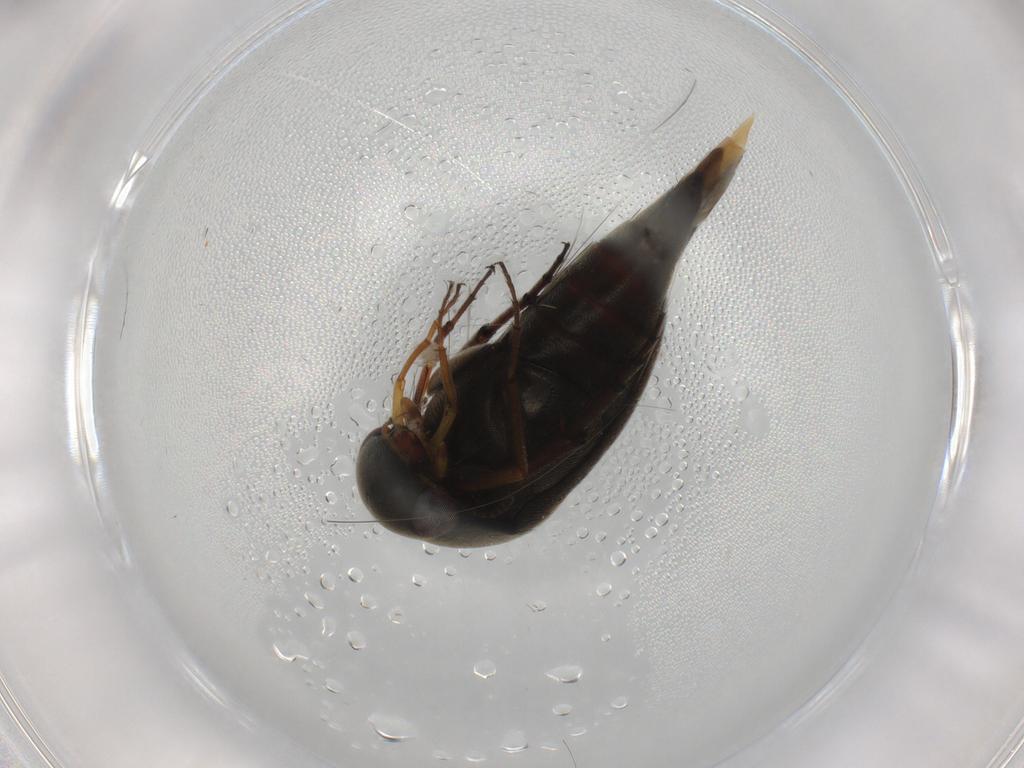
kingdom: Animalia
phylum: Arthropoda
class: Insecta
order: Coleoptera
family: Mordellidae
